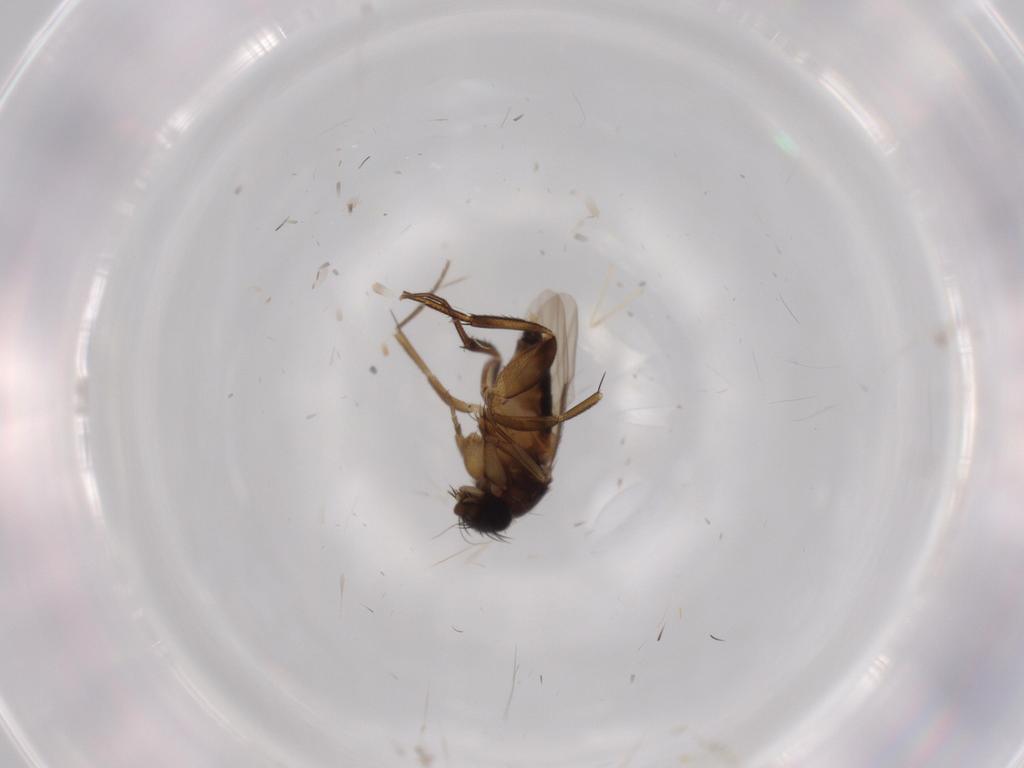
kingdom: Animalia
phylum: Arthropoda
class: Insecta
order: Diptera
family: Phoridae
